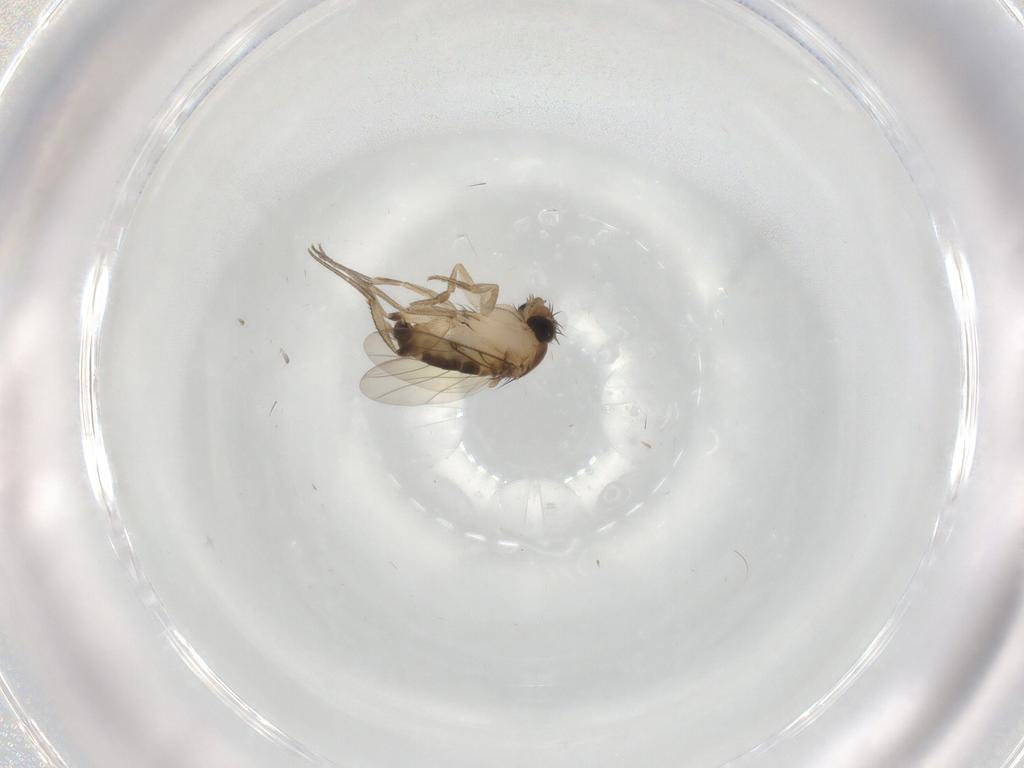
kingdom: Animalia
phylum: Arthropoda
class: Insecta
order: Diptera
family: Phoridae
